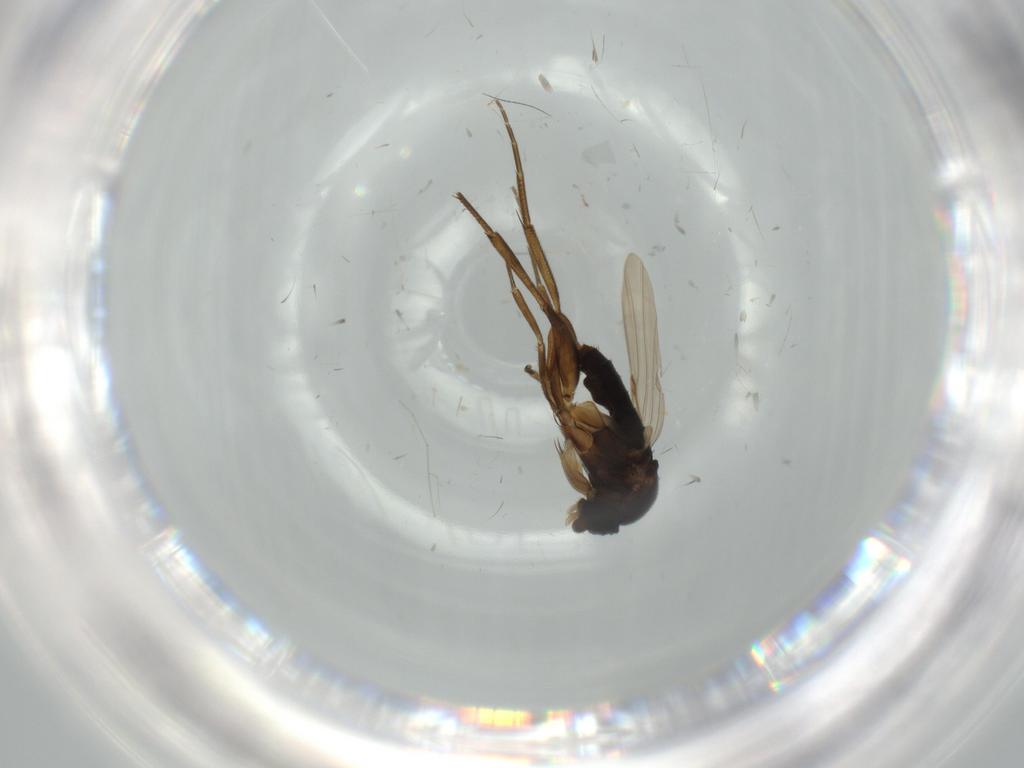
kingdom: Animalia
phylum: Arthropoda
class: Insecta
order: Diptera
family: Phoridae
